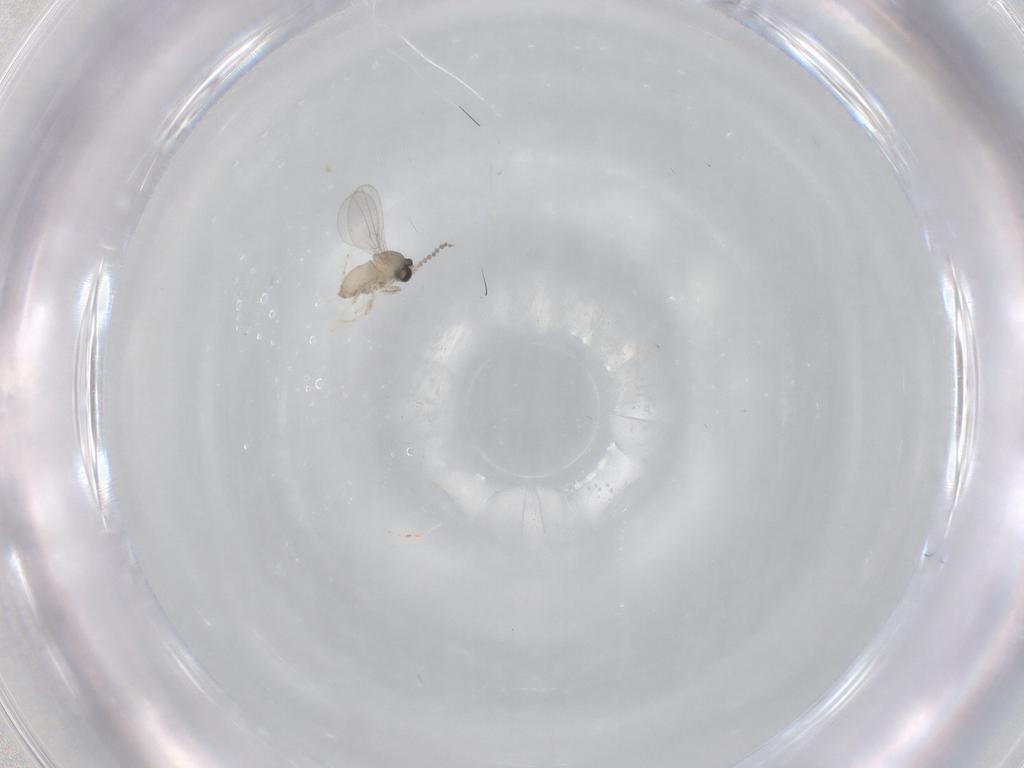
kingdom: Animalia
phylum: Arthropoda
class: Insecta
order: Diptera
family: Cecidomyiidae
